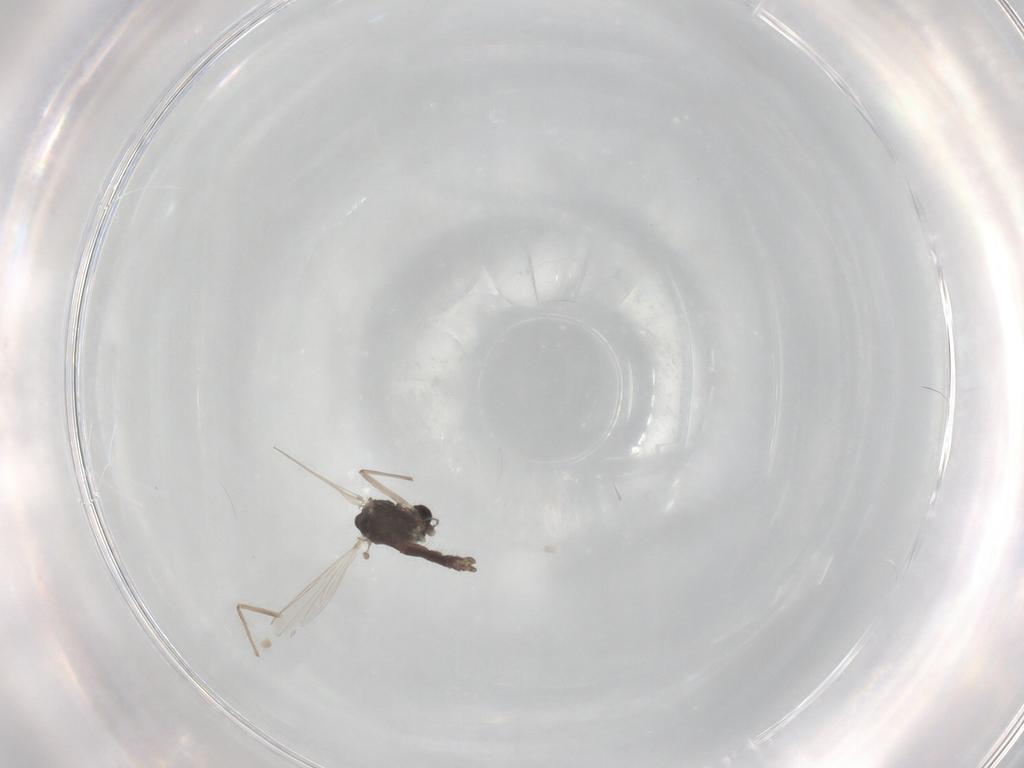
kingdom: Animalia
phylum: Arthropoda
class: Insecta
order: Diptera
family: Chironomidae
